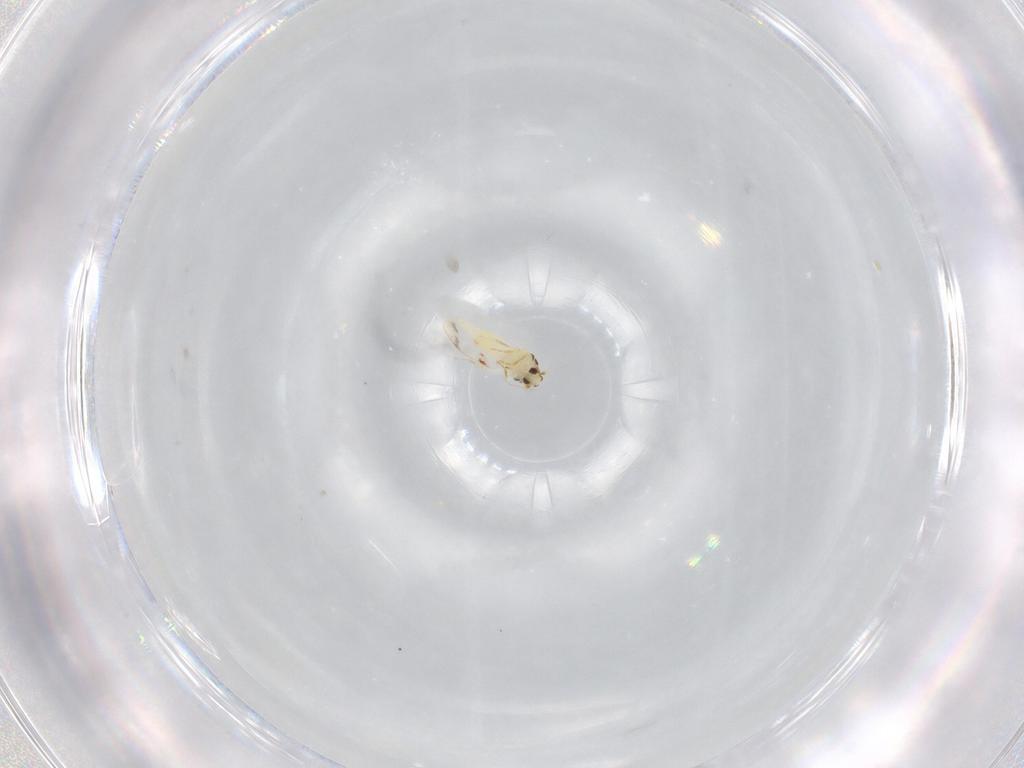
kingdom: Animalia
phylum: Arthropoda
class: Insecta
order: Hemiptera
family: Aleyrodidae
